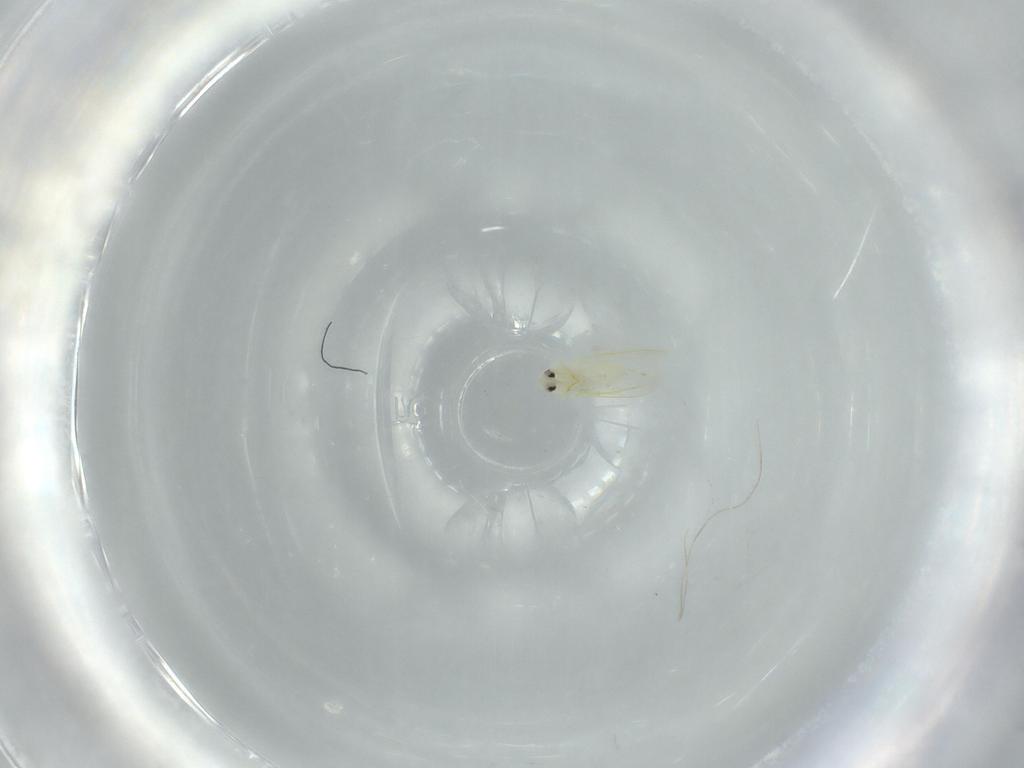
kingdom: Animalia
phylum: Arthropoda
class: Insecta
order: Diptera
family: Sciaridae
